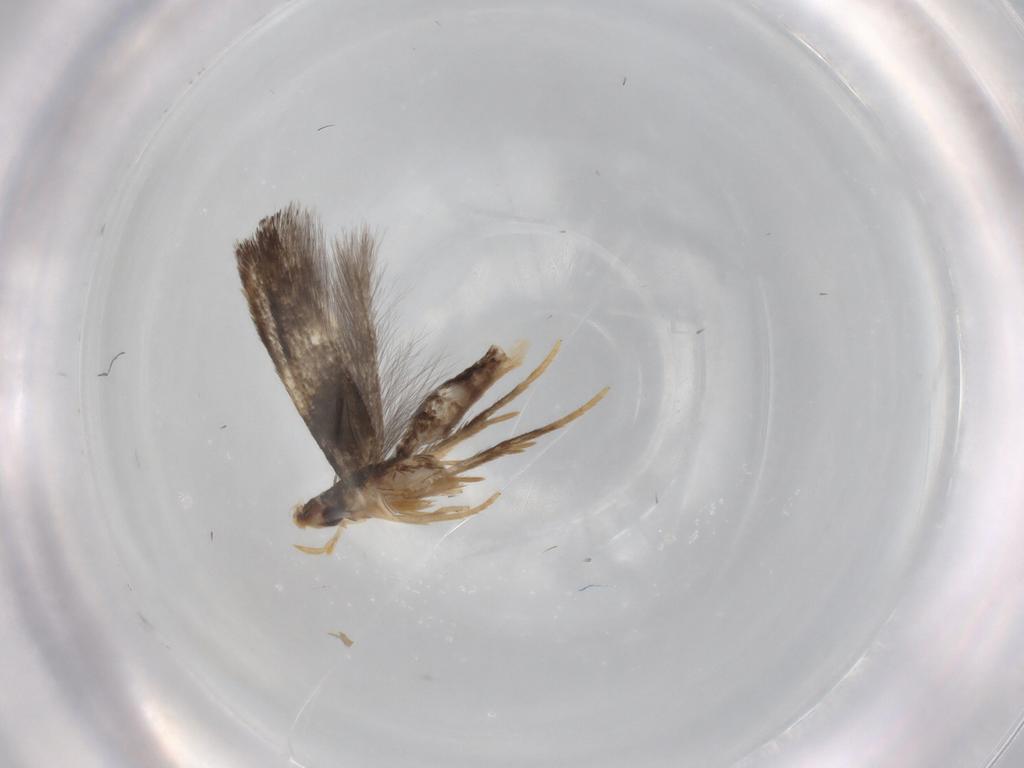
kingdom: Animalia
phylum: Arthropoda
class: Insecta
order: Lepidoptera
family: Gelechiidae
